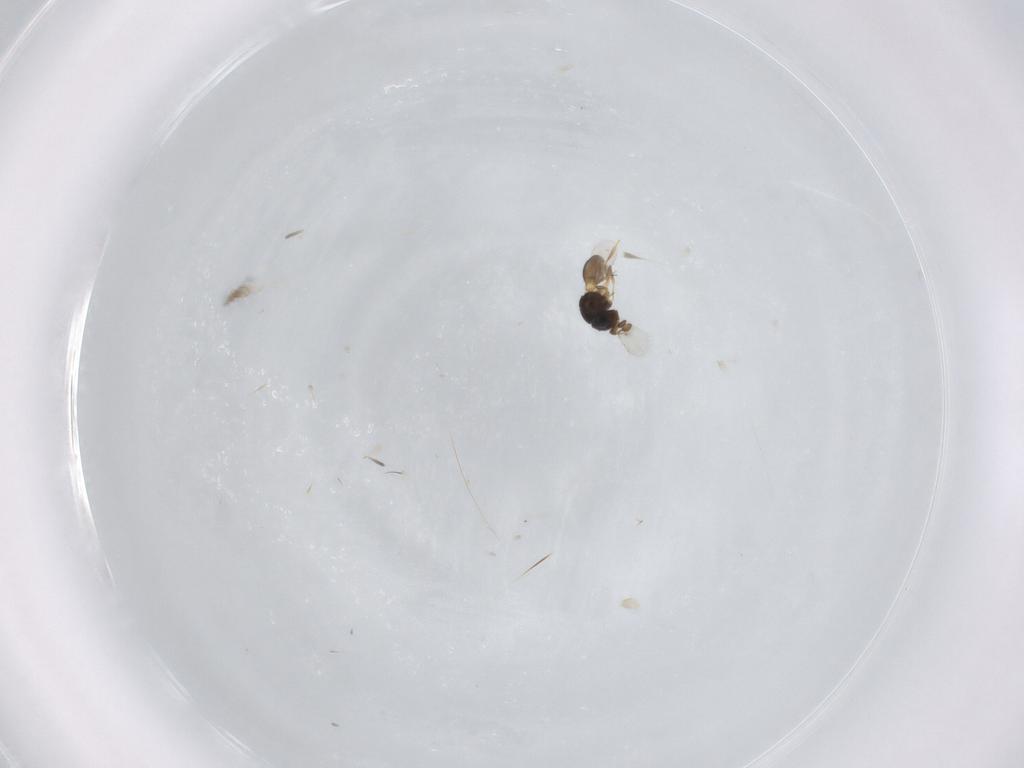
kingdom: Animalia
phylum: Arthropoda
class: Insecta
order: Hymenoptera
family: Scelionidae
